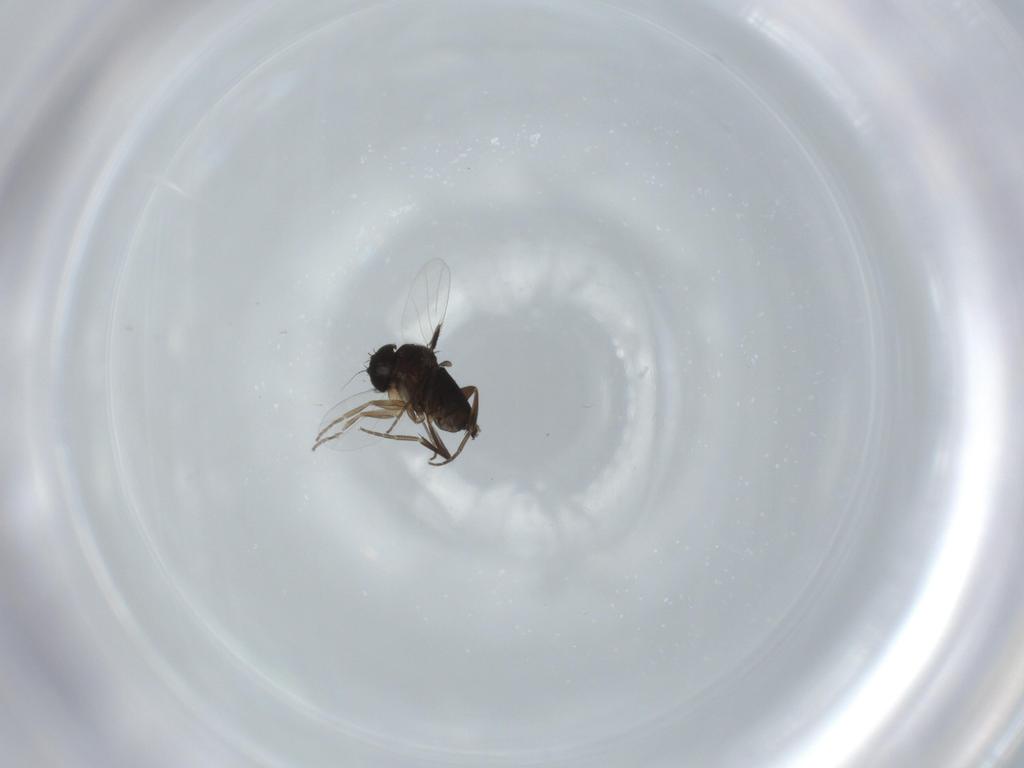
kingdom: Animalia
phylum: Arthropoda
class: Insecta
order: Diptera
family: Phoridae
